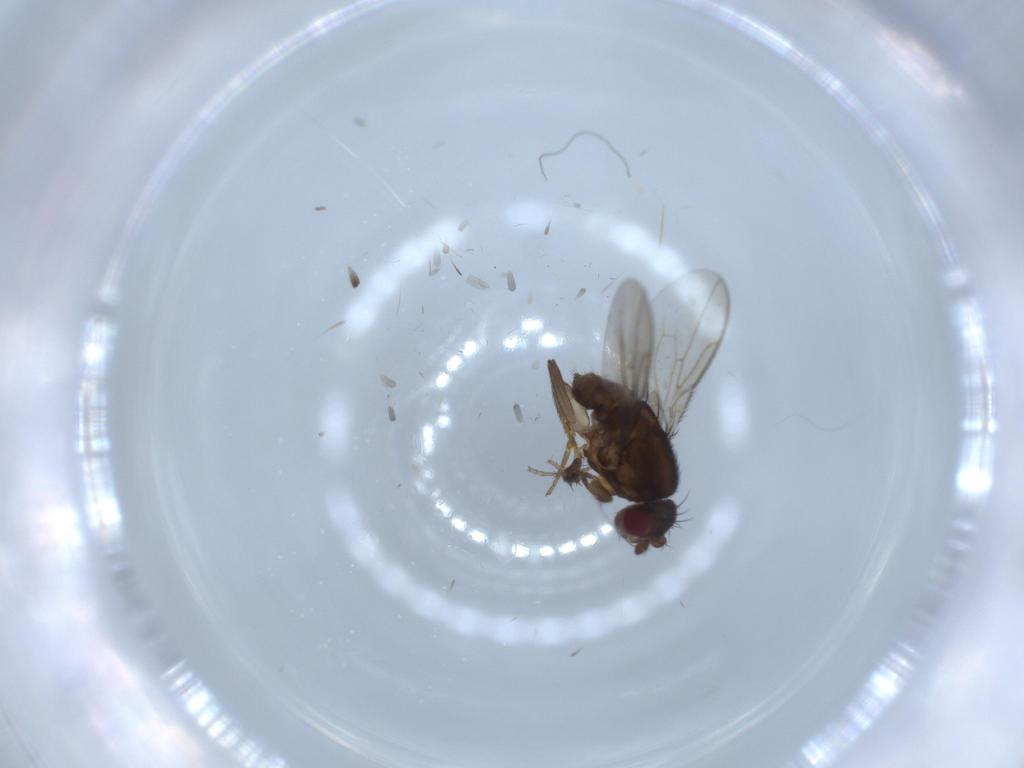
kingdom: Animalia
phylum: Arthropoda
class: Insecta
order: Diptera
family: Sphaeroceridae
